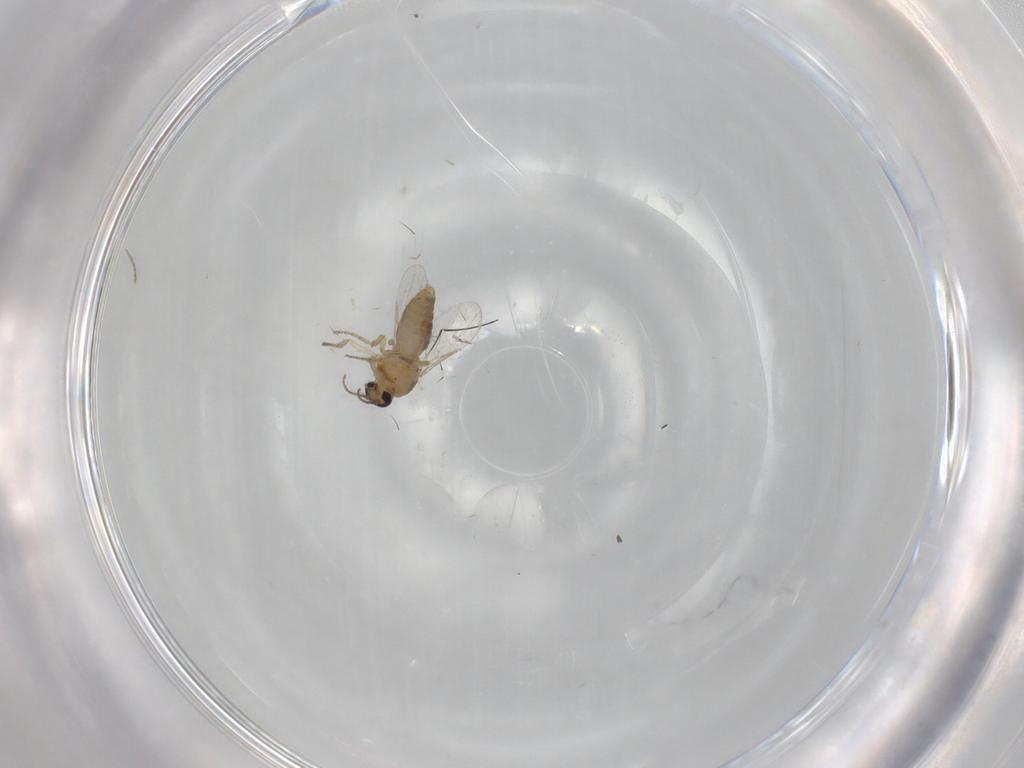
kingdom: Animalia
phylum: Arthropoda
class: Insecta
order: Diptera
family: Ceratopogonidae
